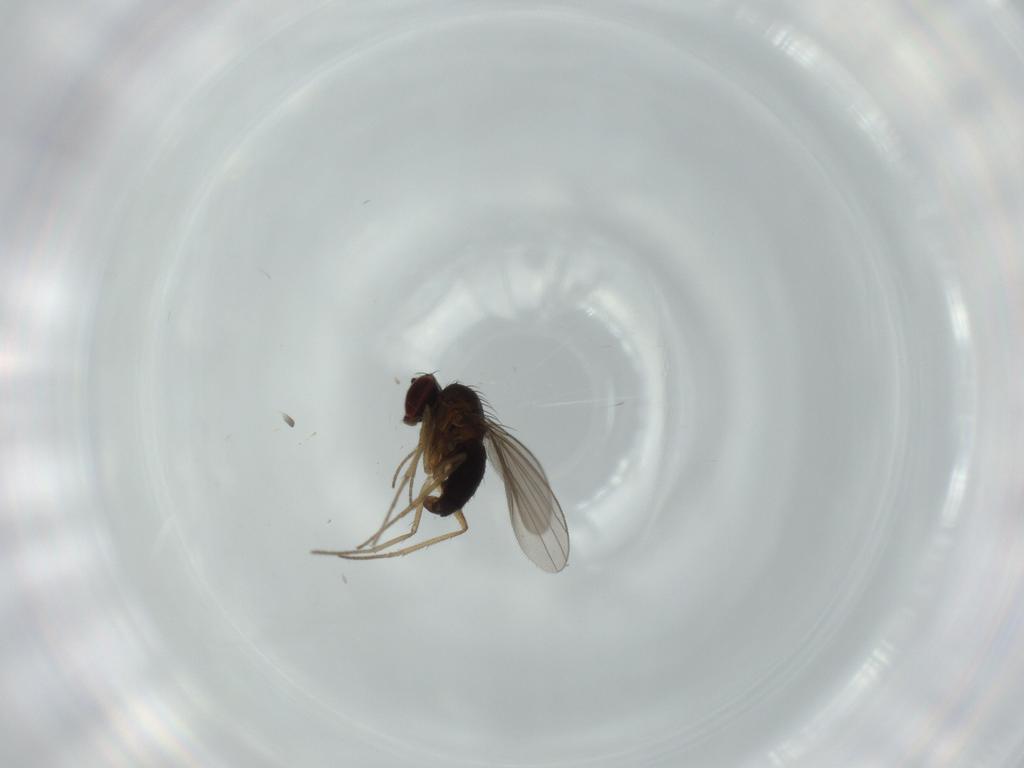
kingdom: Animalia
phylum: Arthropoda
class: Insecta
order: Diptera
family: Dolichopodidae
